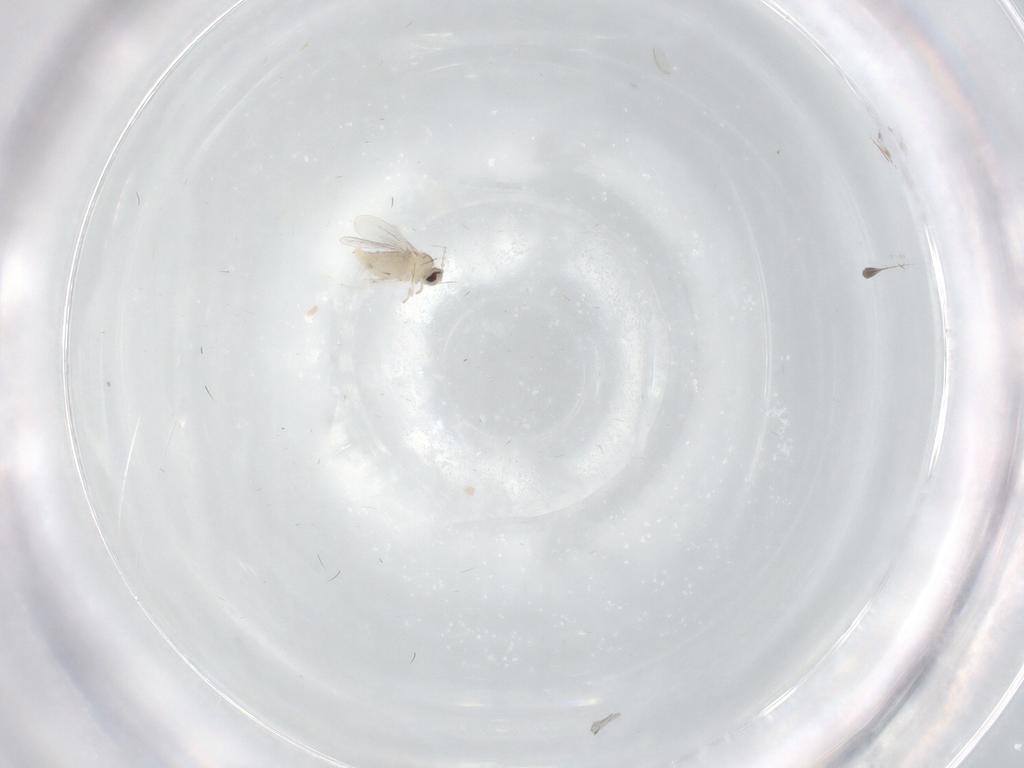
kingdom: Animalia
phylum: Arthropoda
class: Insecta
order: Diptera
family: Cecidomyiidae
